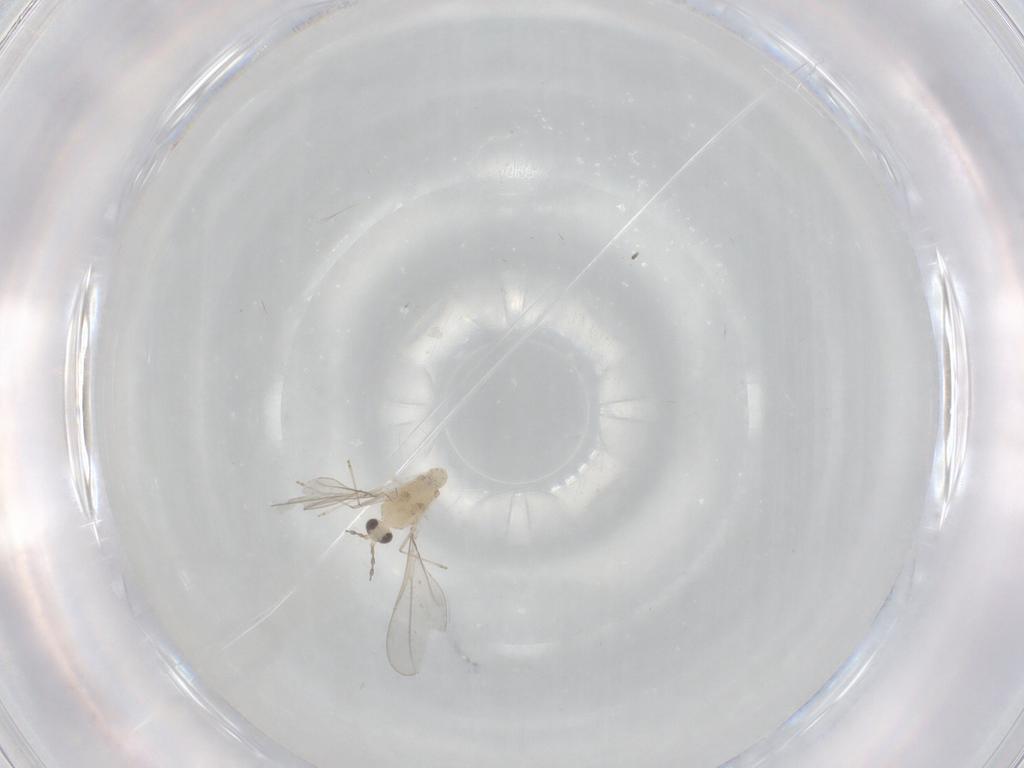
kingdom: Animalia
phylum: Arthropoda
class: Insecta
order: Diptera
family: Cecidomyiidae
